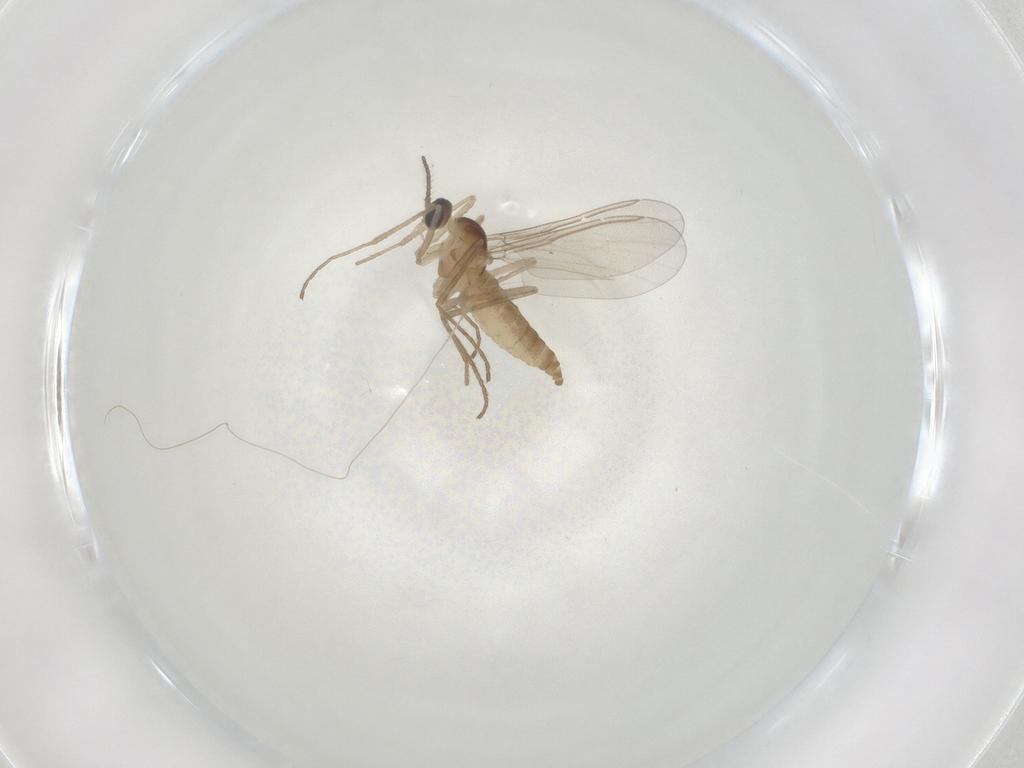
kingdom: Animalia
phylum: Arthropoda
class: Insecta
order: Diptera
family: Cecidomyiidae
